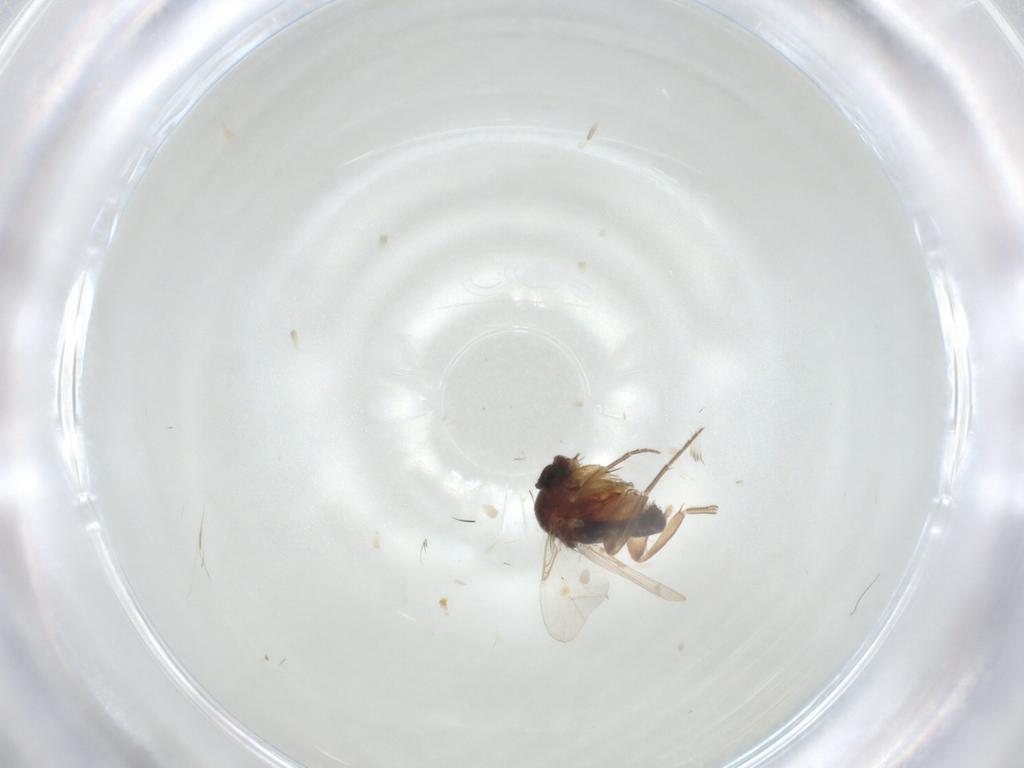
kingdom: Animalia
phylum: Arthropoda
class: Insecta
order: Diptera
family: Phoridae
